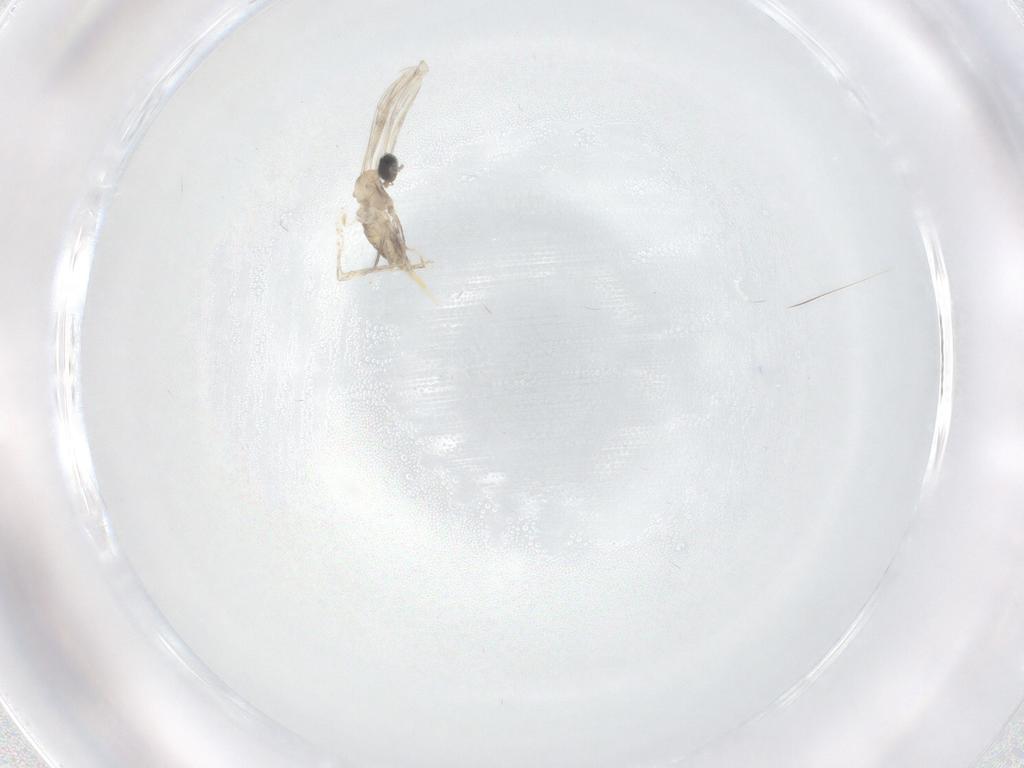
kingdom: Animalia
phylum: Arthropoda
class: Insecta
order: Diptera
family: Cecidomyiidae
